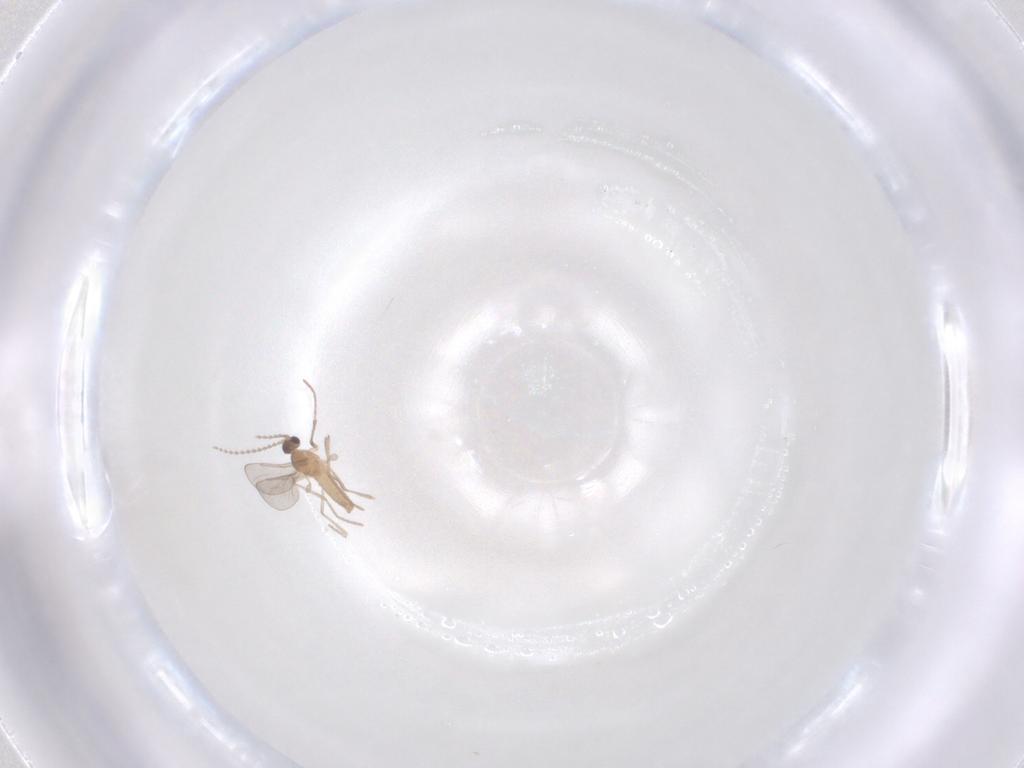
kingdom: Animalia
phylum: Arthropoda
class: Insecta
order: Diptera
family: Cecidomyiidae
